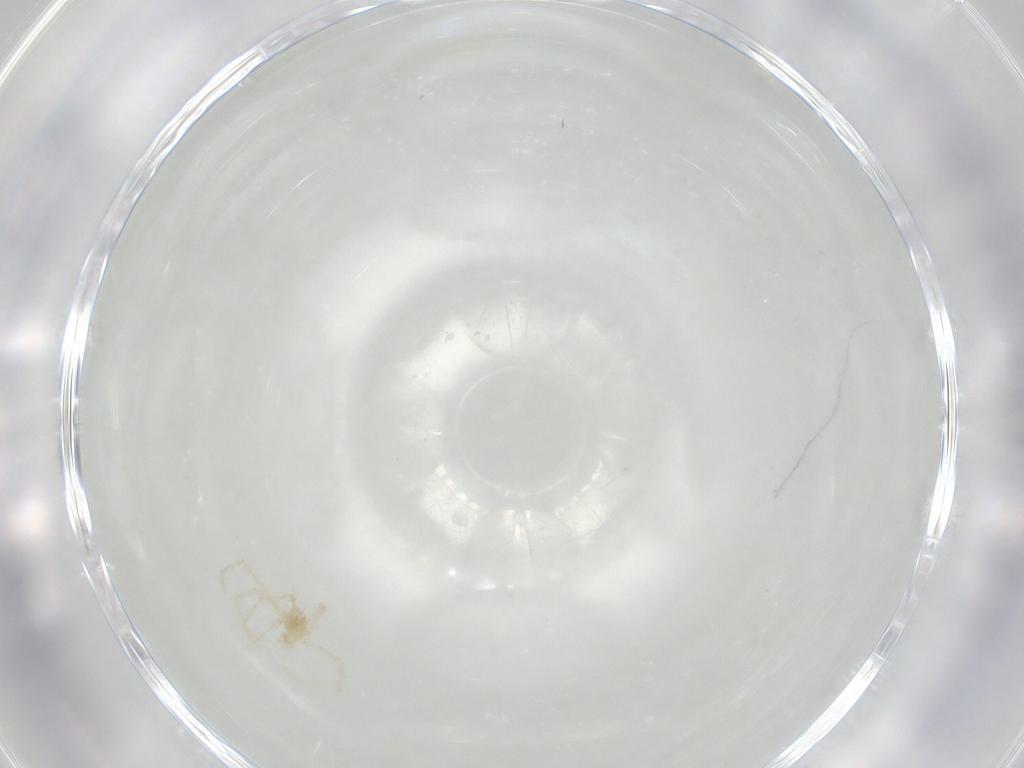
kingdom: Animalia
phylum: Arthropoda
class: Arachnida
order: Trombidiformes
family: Erythraeidae
